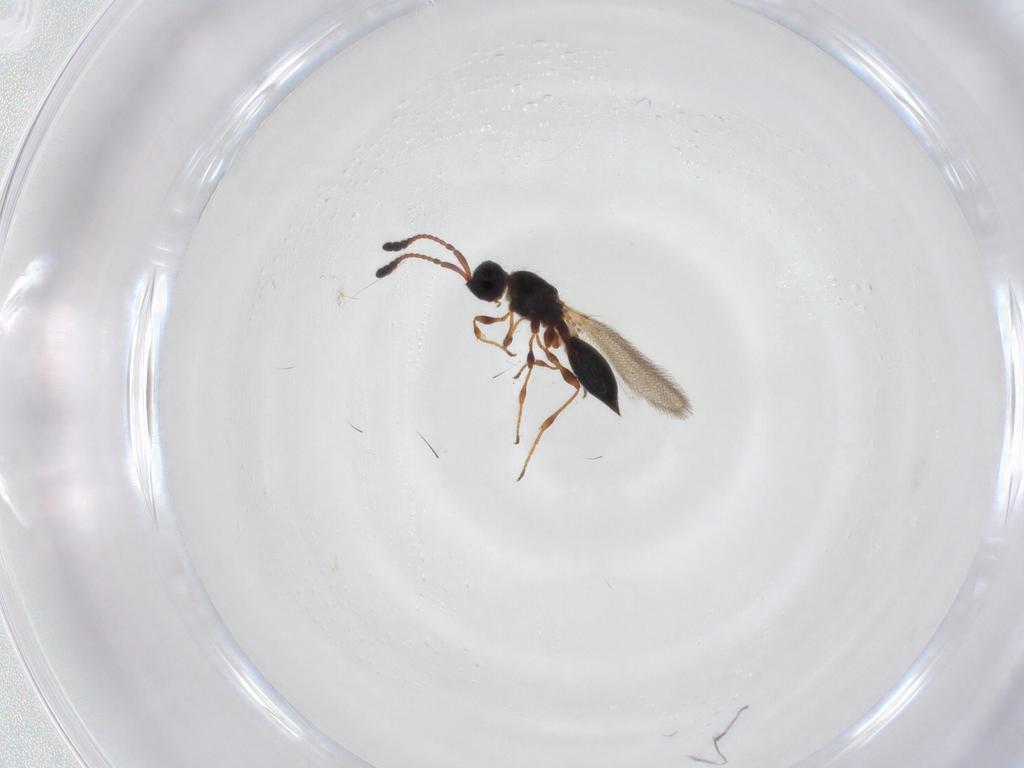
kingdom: Animalia
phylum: Arthropoda
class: Insecta
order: Hymenoptera
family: Diapriidae
